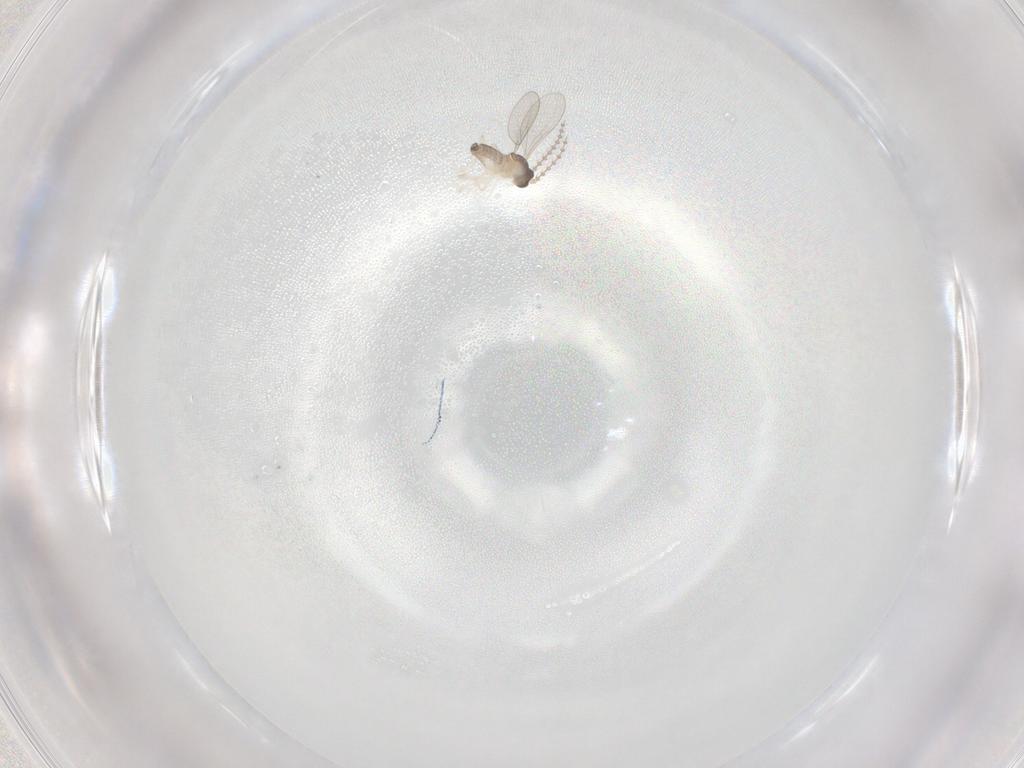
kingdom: Animalia
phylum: Arthropoda
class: Insecta
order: Diptera
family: Cecidomyiidae
